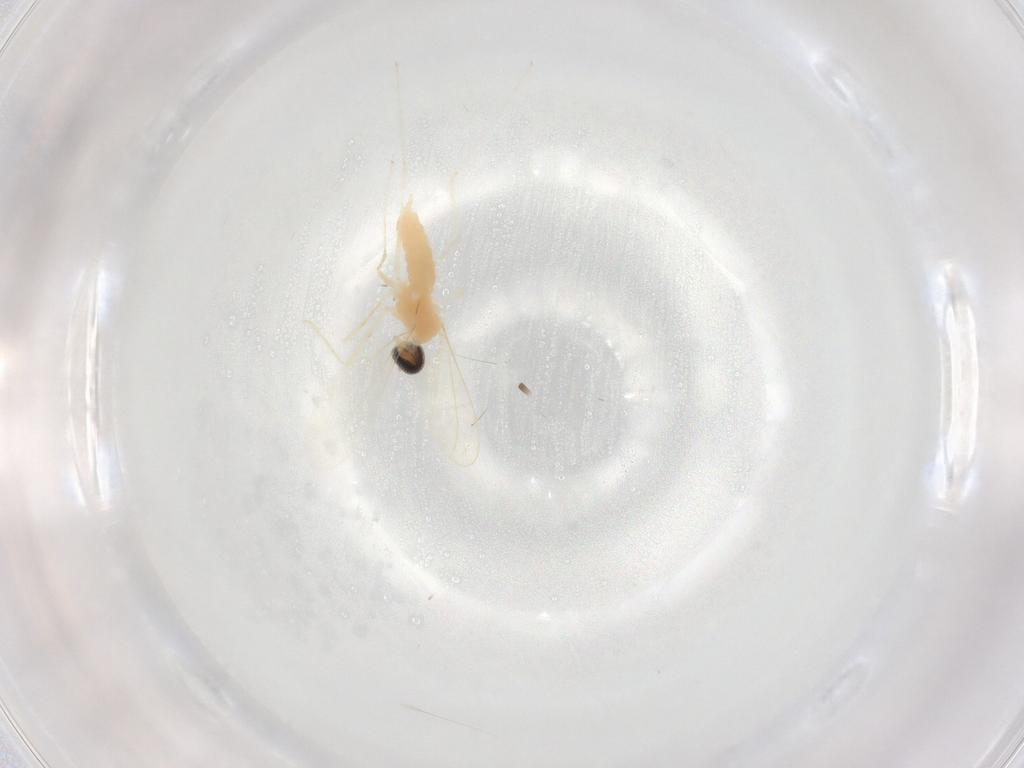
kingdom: Animalia
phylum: Arthropoda
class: Insecta
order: Diptera
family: Cecidomyiidae
